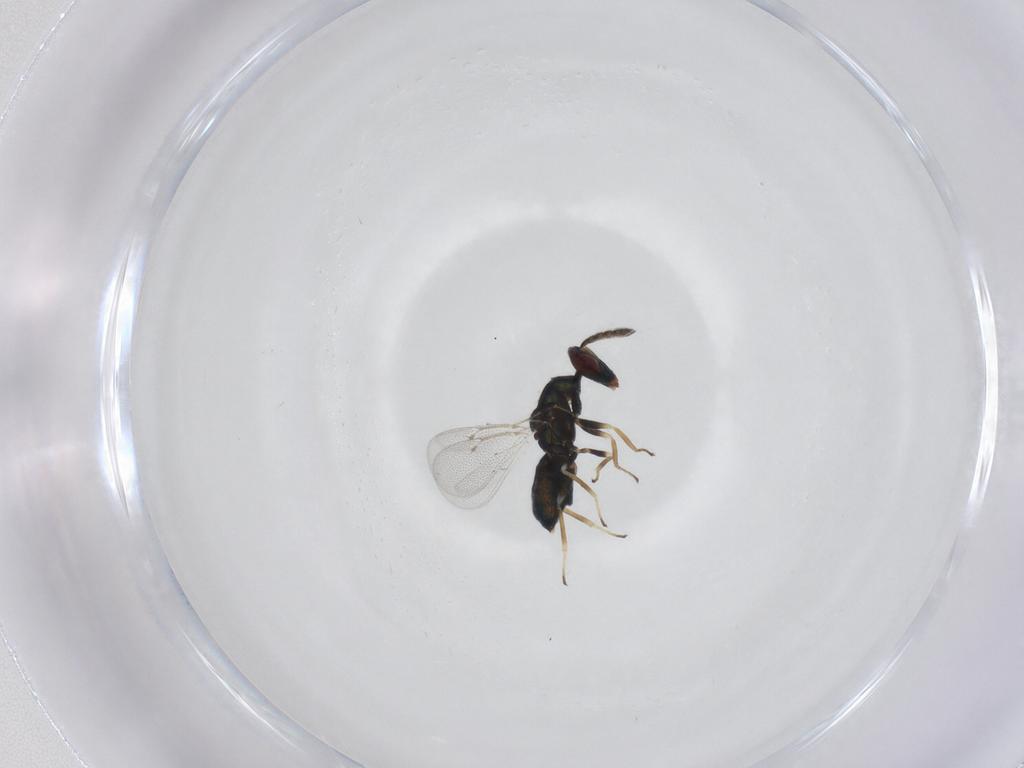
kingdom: Animalia
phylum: Arthropoda
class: Insecta
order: Hymenoptera
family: Eulophidae
